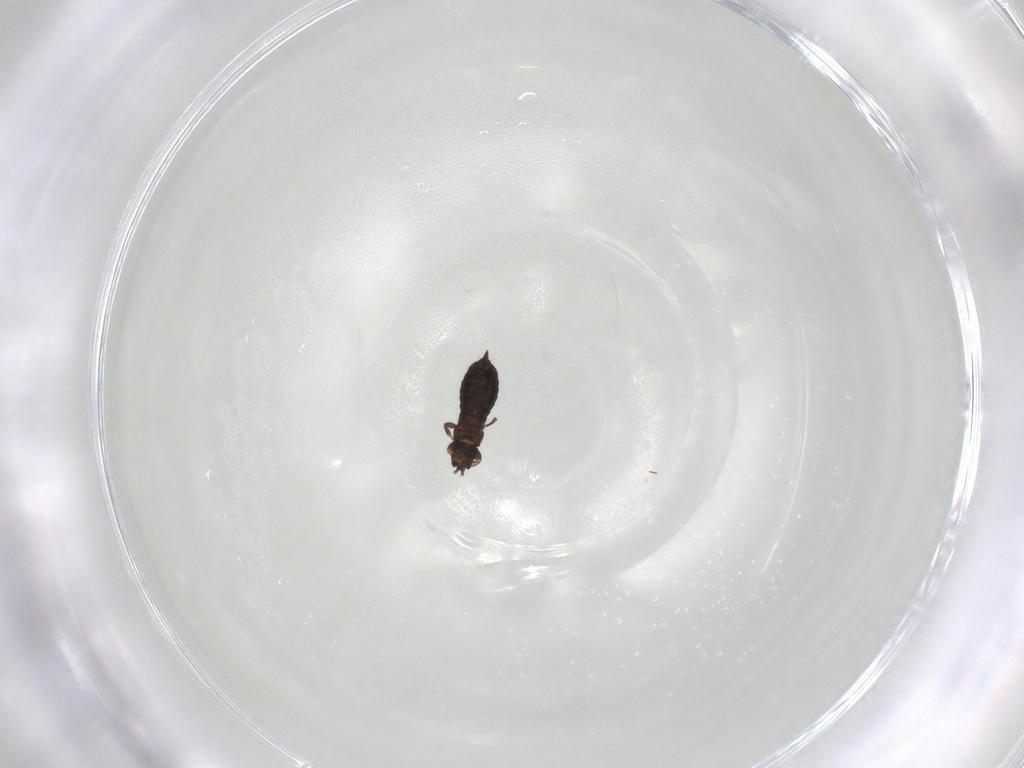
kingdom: Animalia
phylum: Arthropoda
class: Insecta
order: Thysanoptera
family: Heterothripidae
